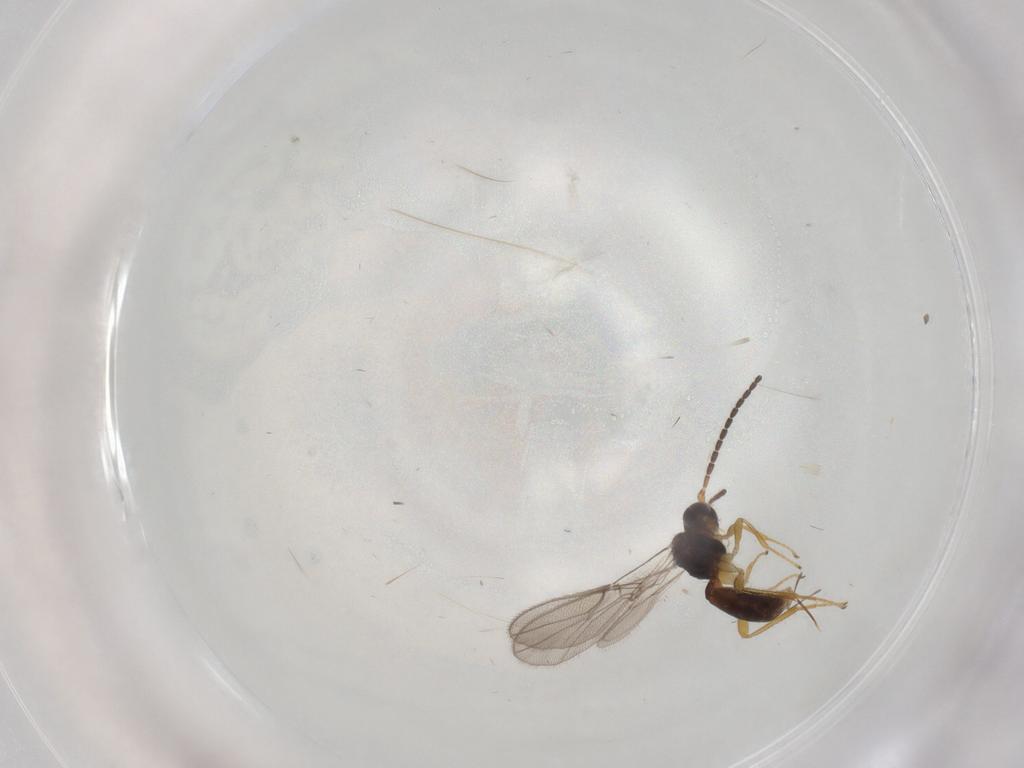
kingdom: Animalia
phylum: Arthropoda
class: Insecta
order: Hymenoptera
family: Braconidae
